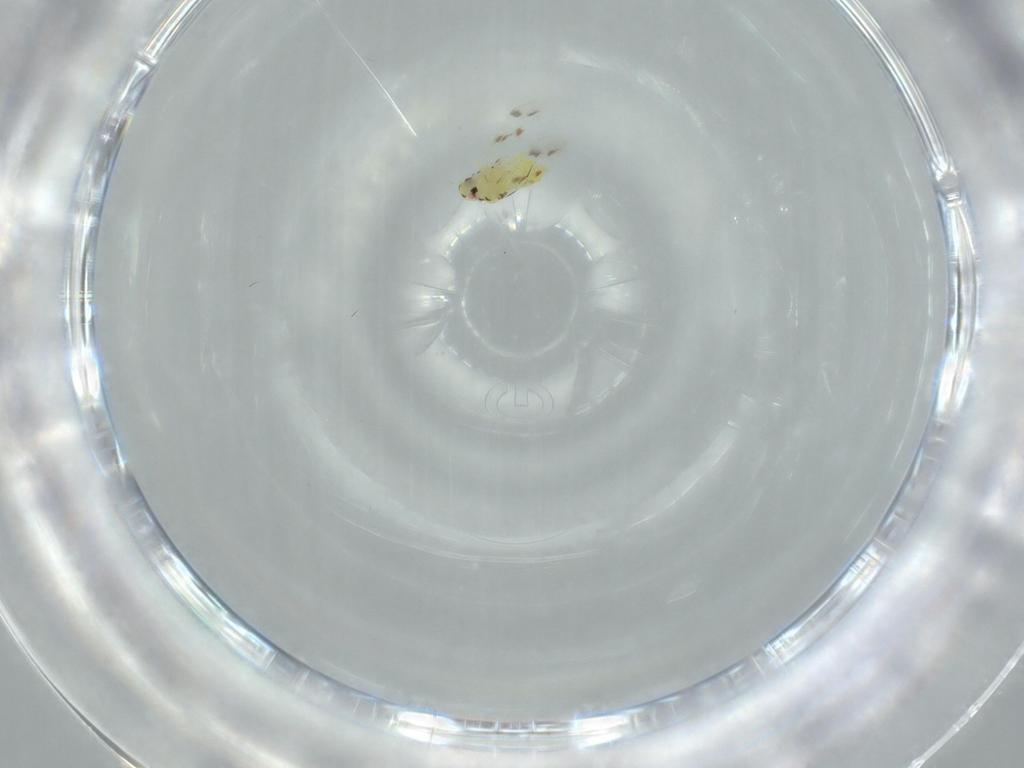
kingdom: Animalia
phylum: Arthropoda
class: Insecta
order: Hemiptera
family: Aleyrodidae
